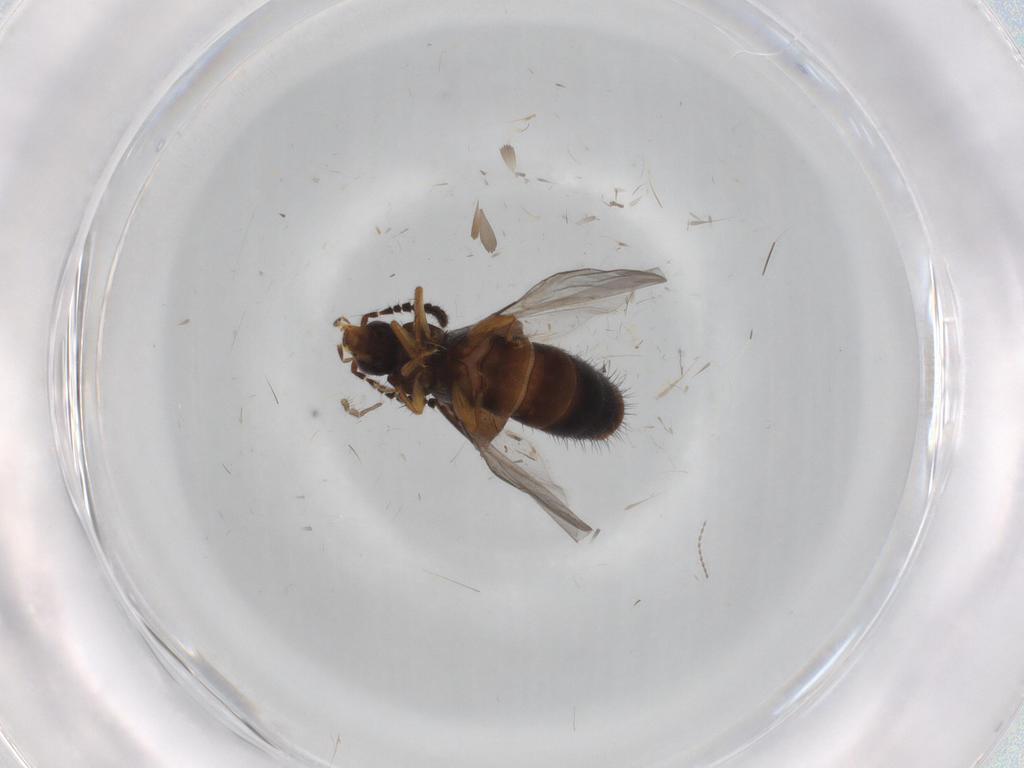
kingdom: Animalia
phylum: Arthropoda
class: Insecta
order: Coleoptera
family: Staphylinidae
